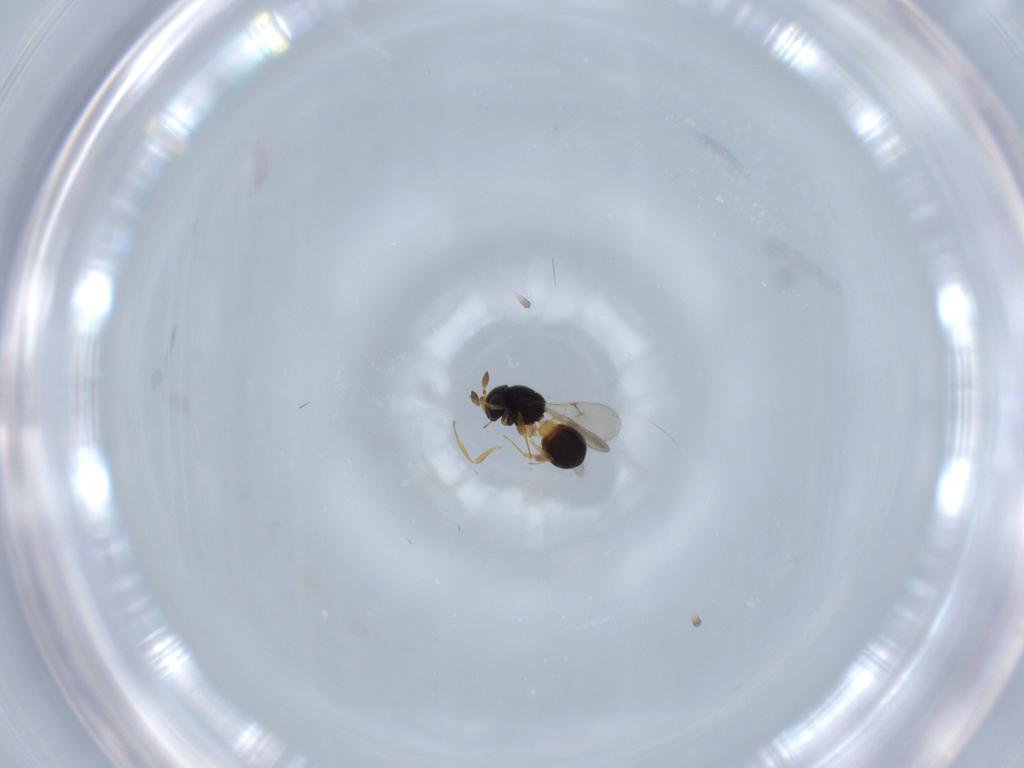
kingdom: Animalia
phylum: Arthropoda
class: Insecta
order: Hymenoptera
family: Scelionidae
